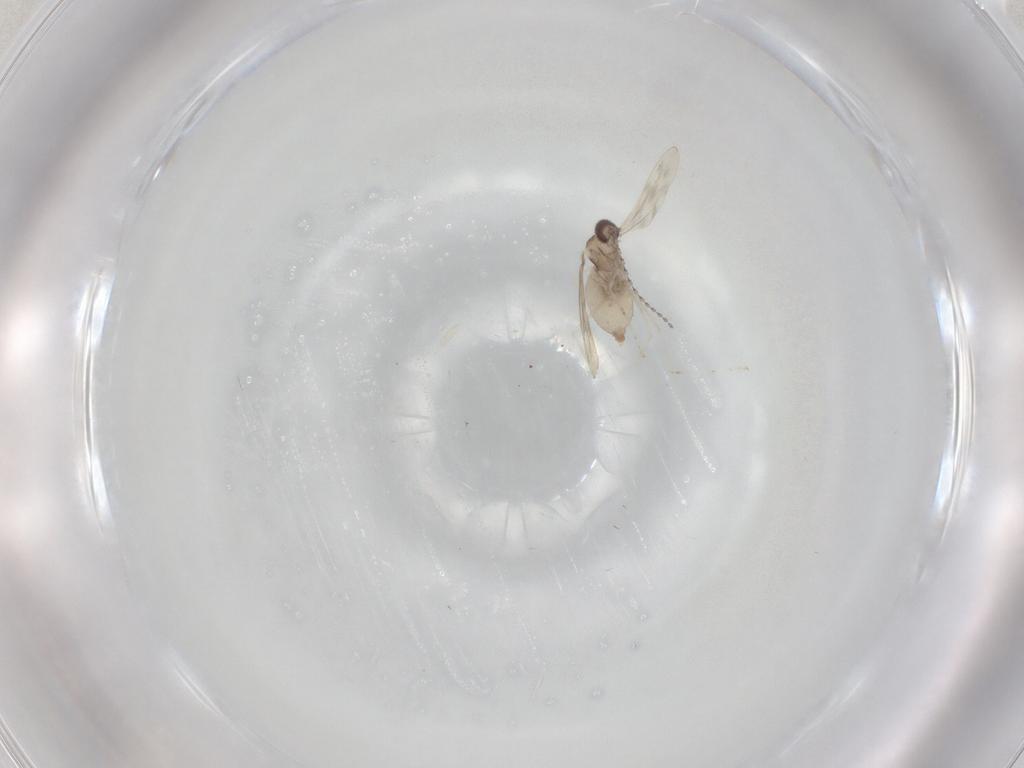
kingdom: Animalia
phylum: Arthropoda
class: Insecta
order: Diptera
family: Cecidomyiidae
